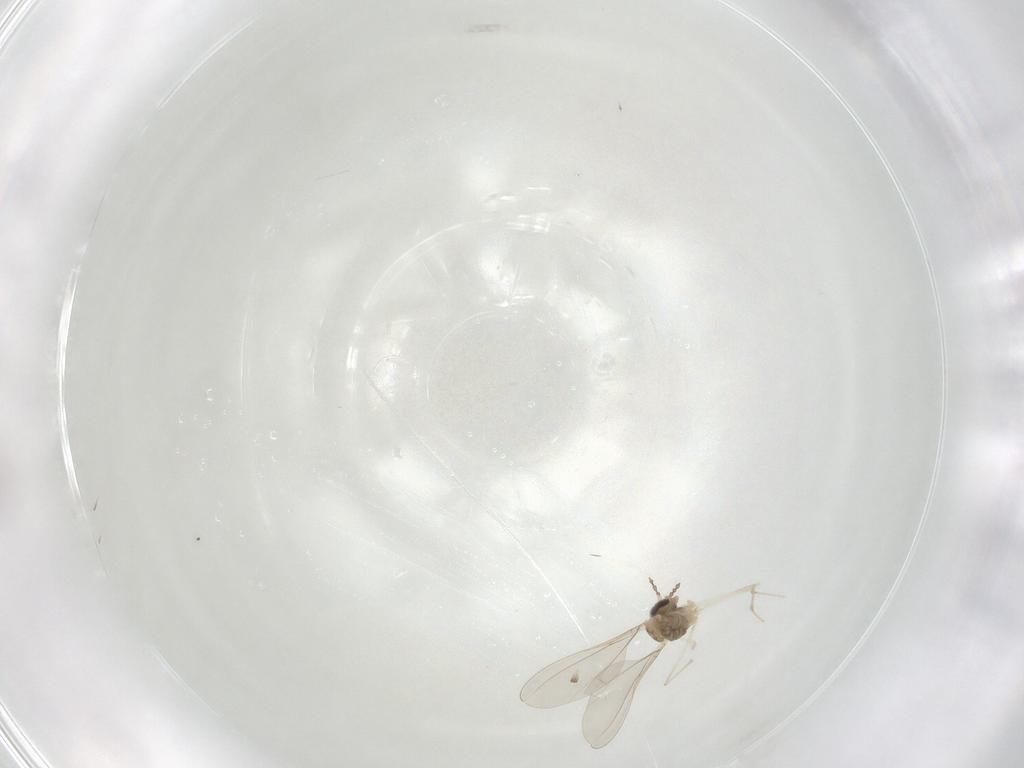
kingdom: Animalia
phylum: Arthropoda
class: Insecta
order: Diptera
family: Cecidomyiidae
